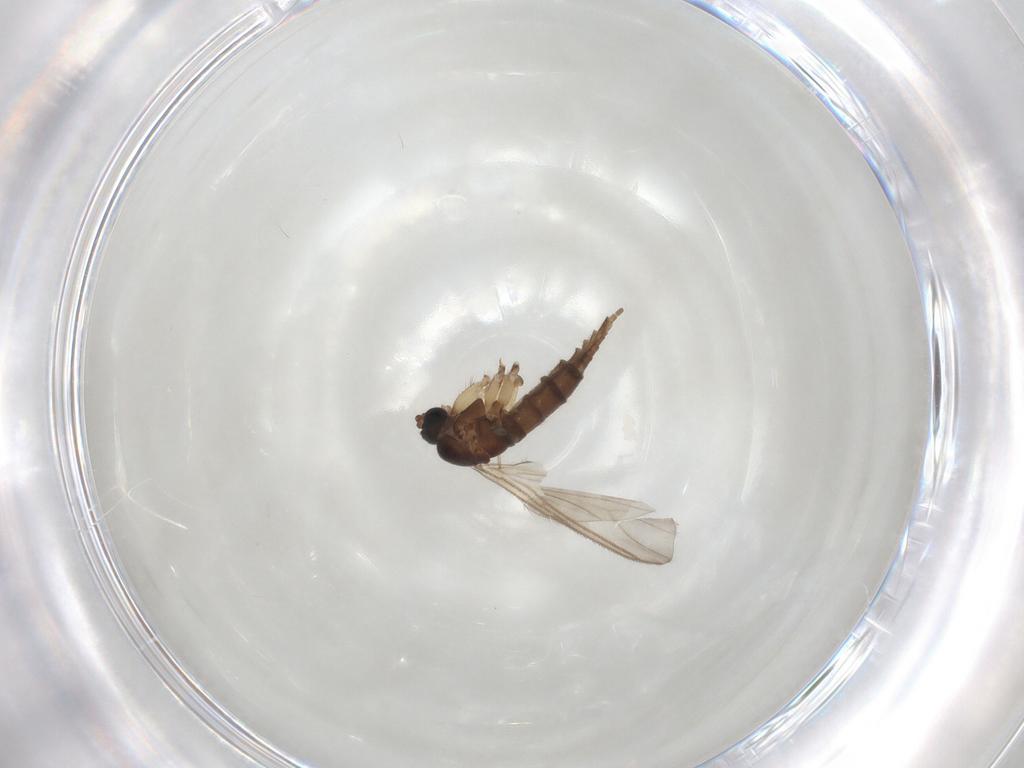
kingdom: Animalia
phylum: Arthropoda
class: Insecta
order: Diptera
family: Sciaridae
